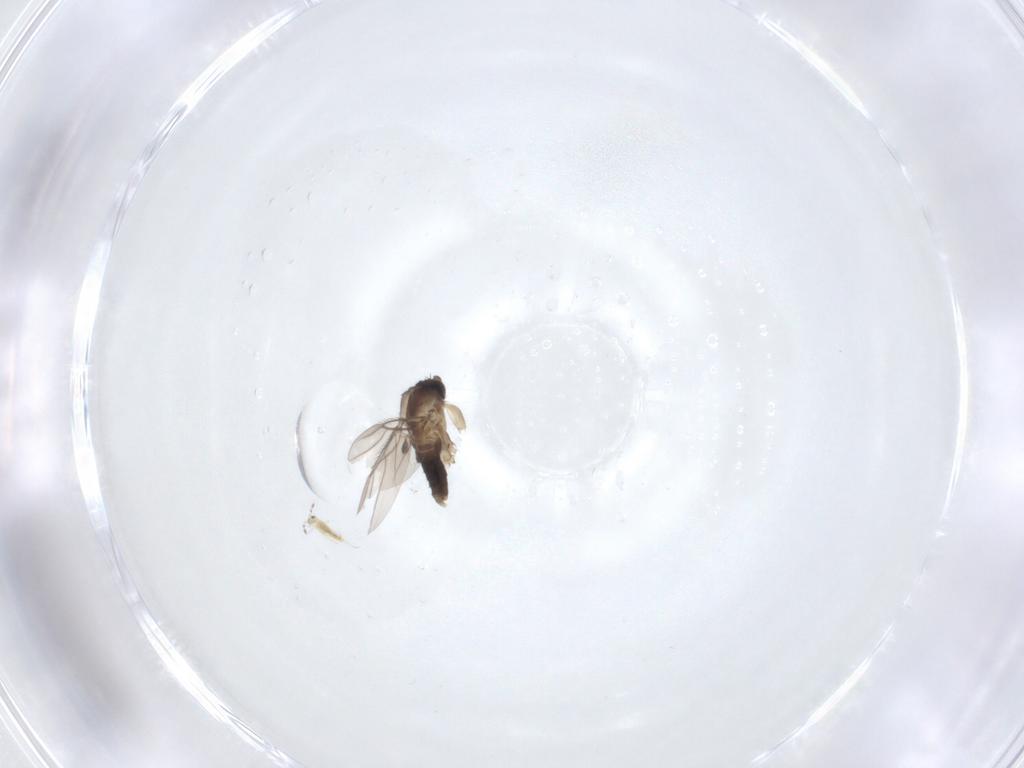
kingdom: Animalia
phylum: Arthropoda
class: Insecta
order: Diptera
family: Phoridae
